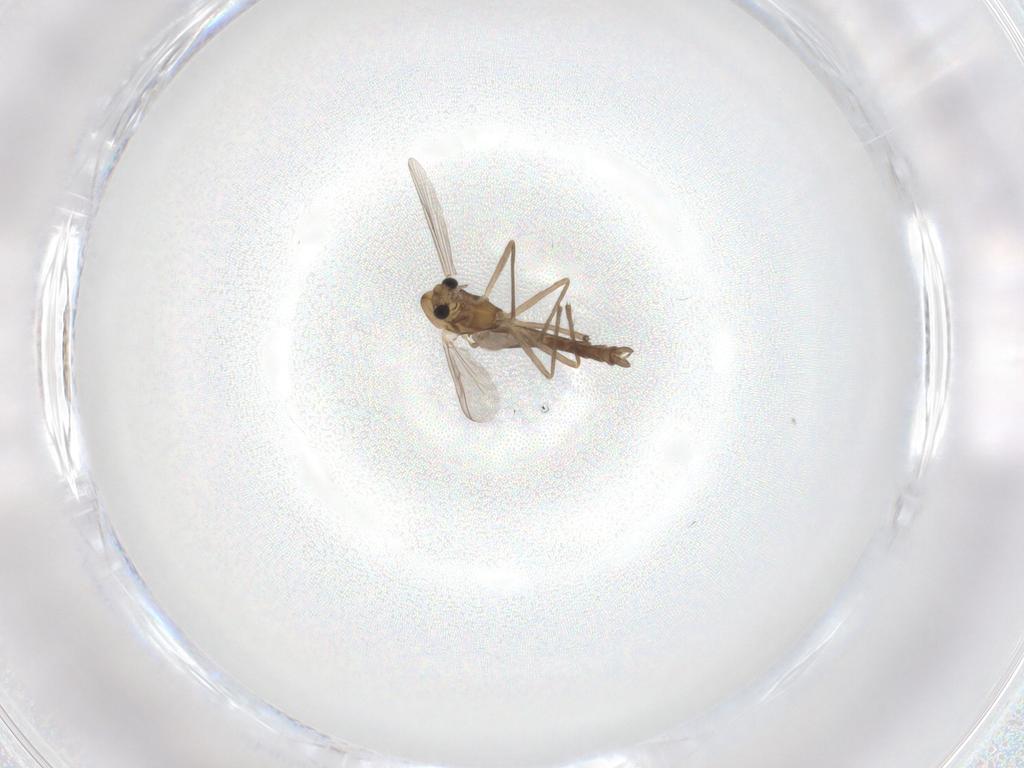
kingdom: Animalia
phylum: Arthropoda
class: Insecta
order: Diptera
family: Chironomidae
